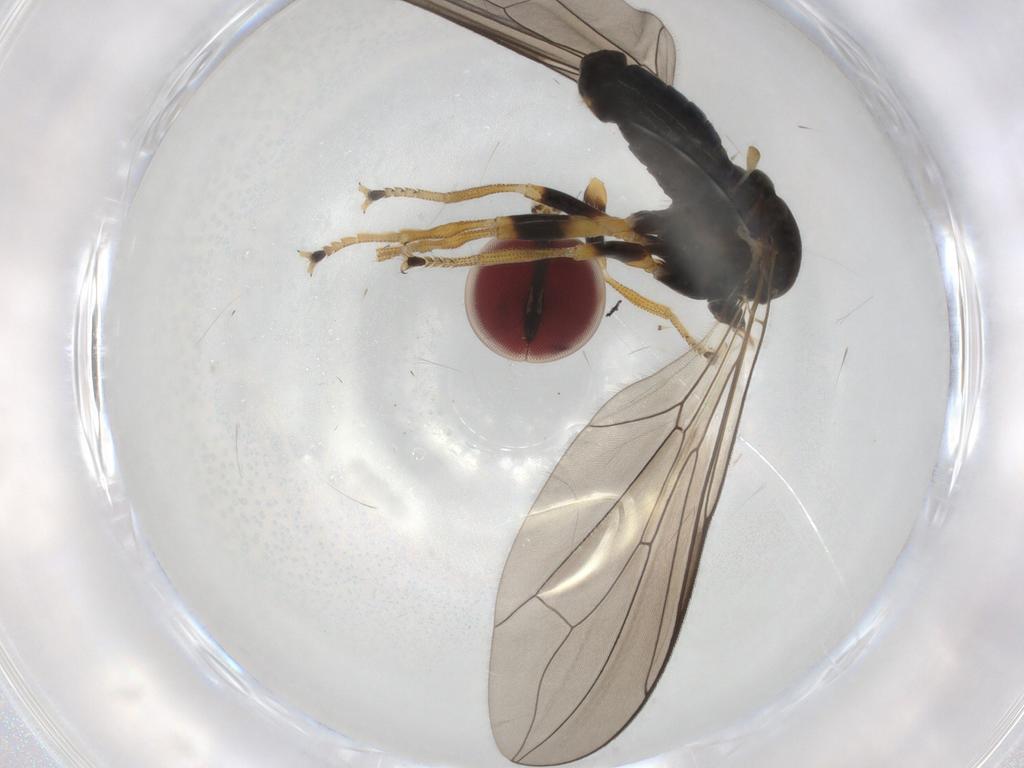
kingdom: Animalia
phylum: Arthropoda
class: Insecta
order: Diptera
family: Pipunculidae
